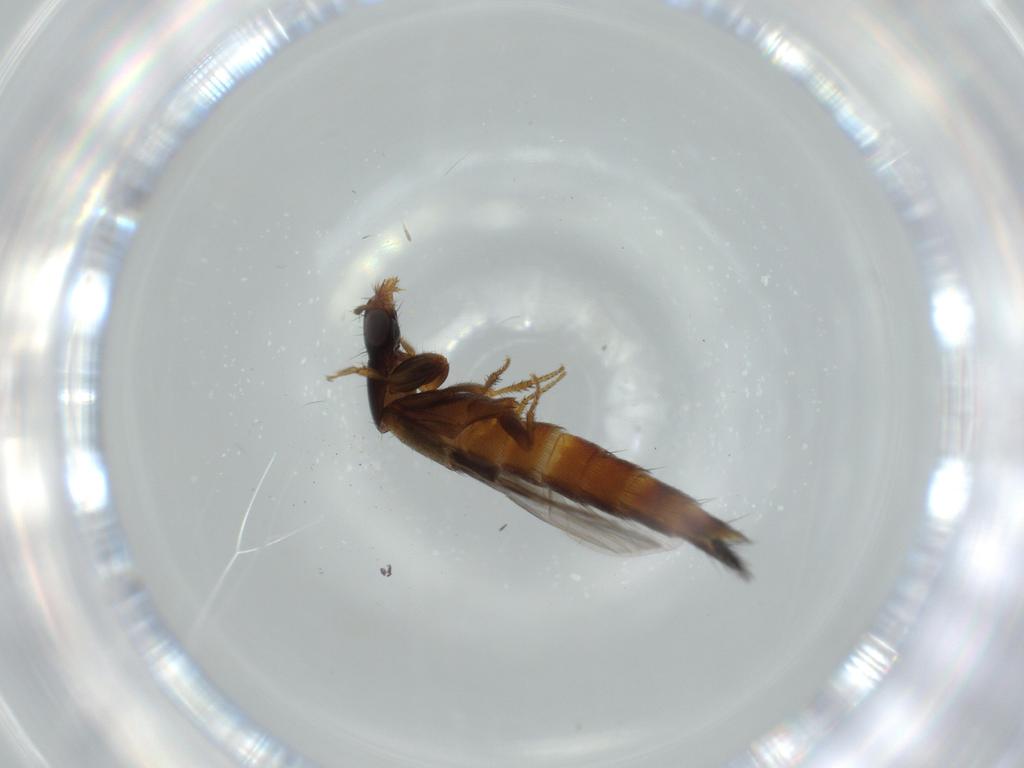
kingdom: Animalia
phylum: Arthropoda
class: Insecta
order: Coleoptera
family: Staphylinidae
